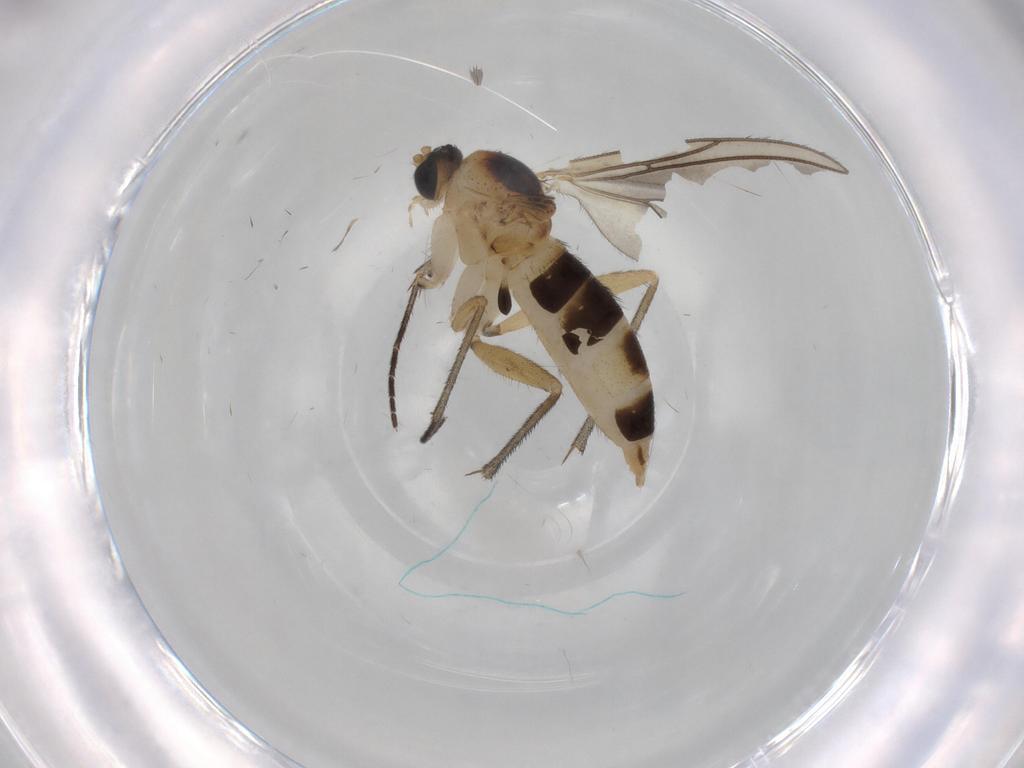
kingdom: Animalia
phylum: Arthropoda
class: Insecta
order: Diptera
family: Sciaridae
